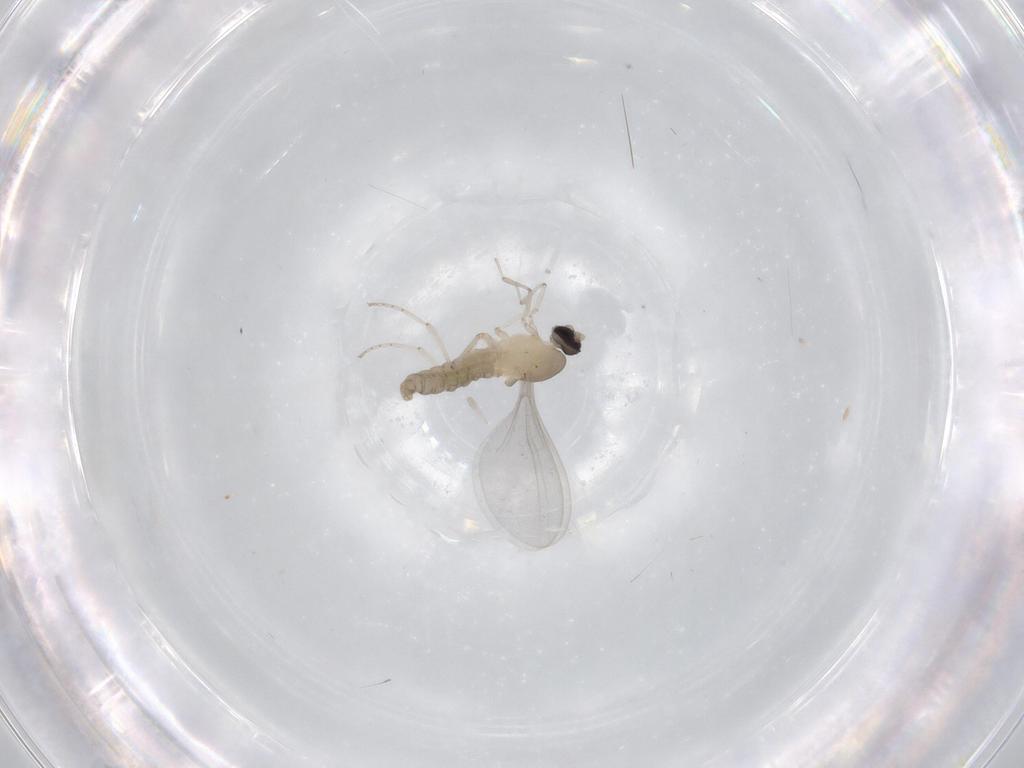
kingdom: Animalia
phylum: Arthropoda
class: Insecta
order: Diptera
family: Cecidomyiidae
